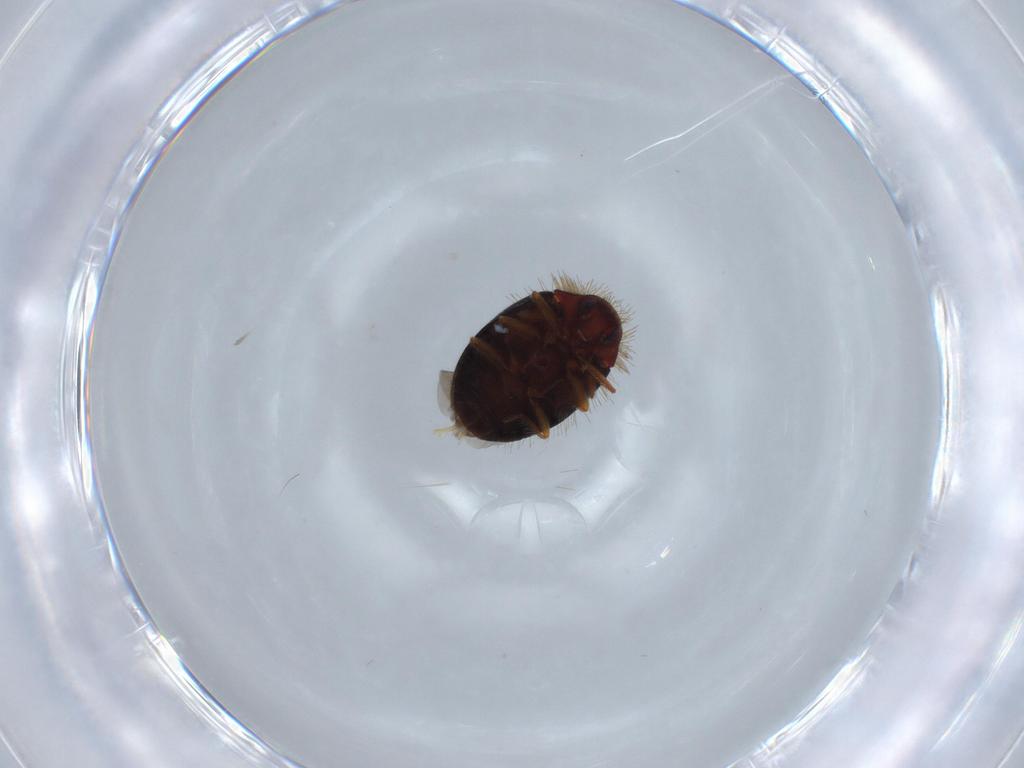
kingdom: Animalia
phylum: Arthropoda
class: Insecta
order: Coleoptera
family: Dermestidae
